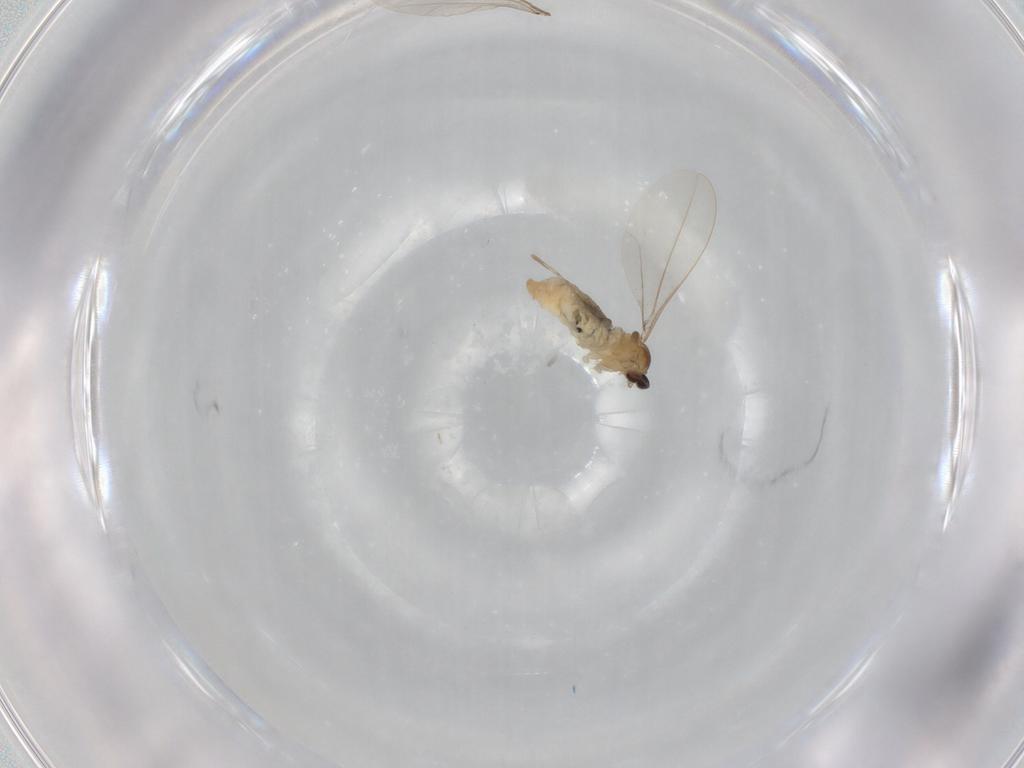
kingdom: Animalia
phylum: Arthropoda
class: Insecta
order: Diptera
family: Cecidomyiidae
